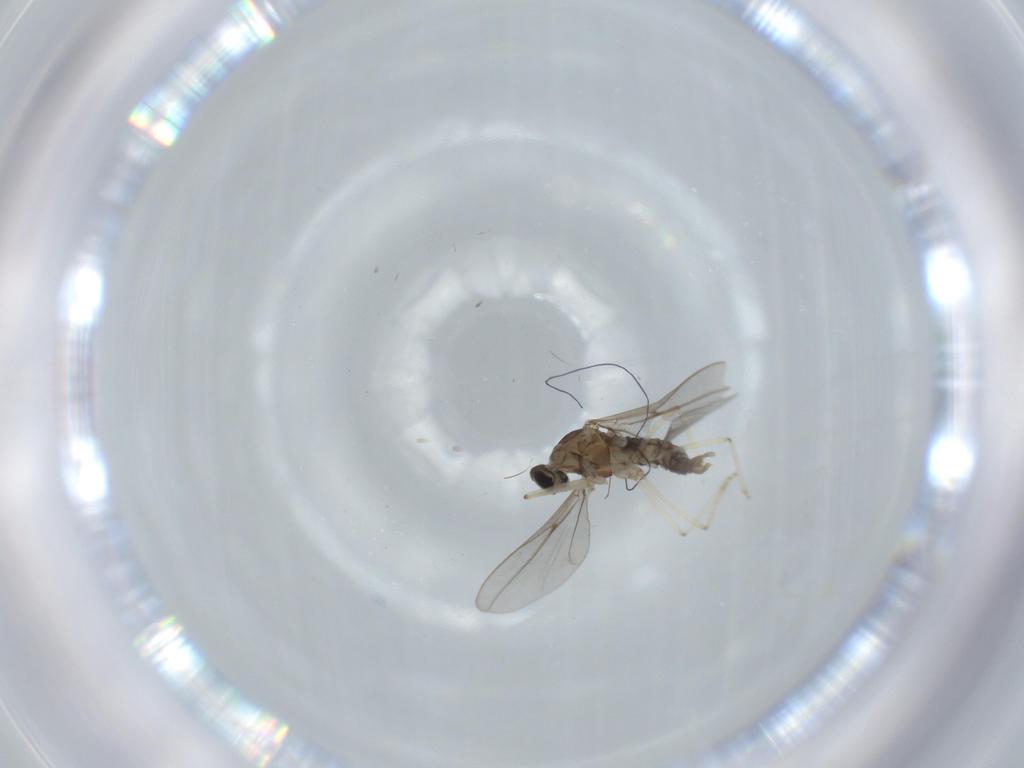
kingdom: Animalia
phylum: Arthropoda
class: Insecta
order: Diptera
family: Cecidomyiidae
